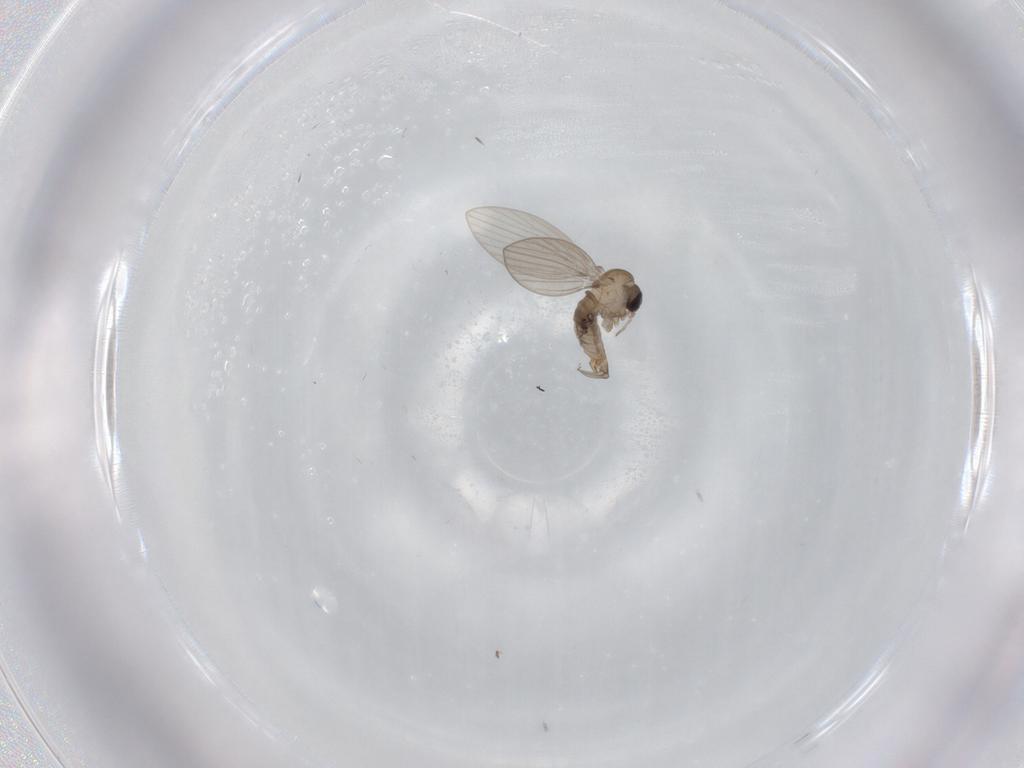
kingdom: Animalia
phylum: Arthropoda
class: Insecta
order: Diptera
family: Psychodidae
